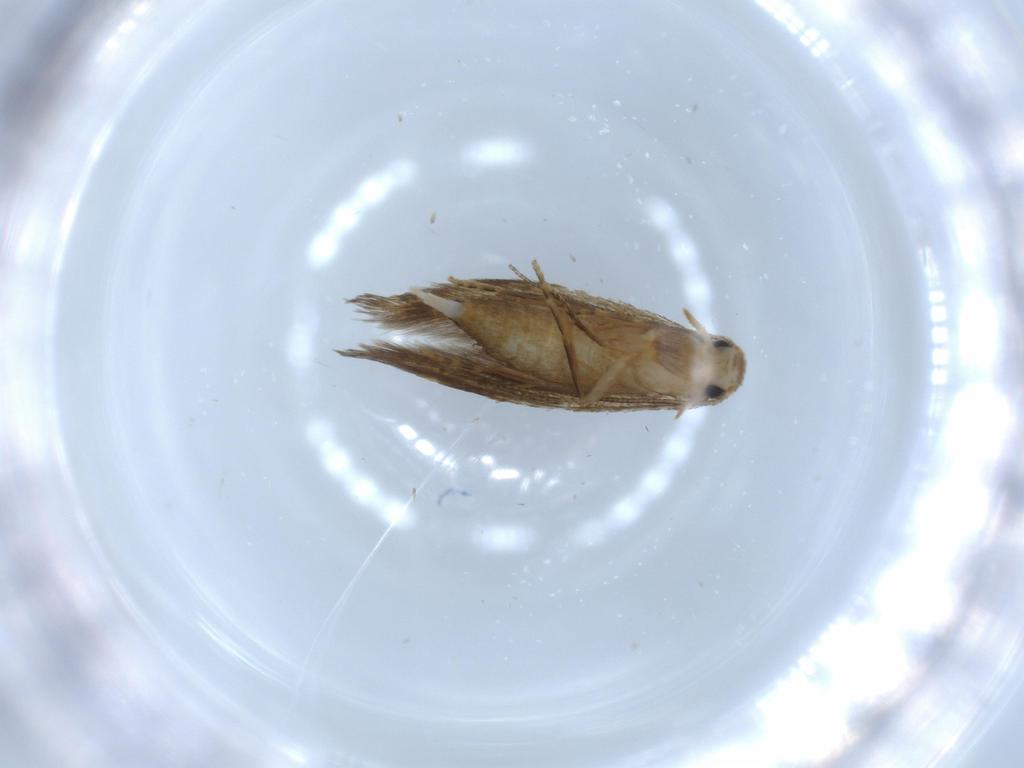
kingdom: Animalia
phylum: Arthropoda
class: Insecta
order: Lepidoptera
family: Tineidae
